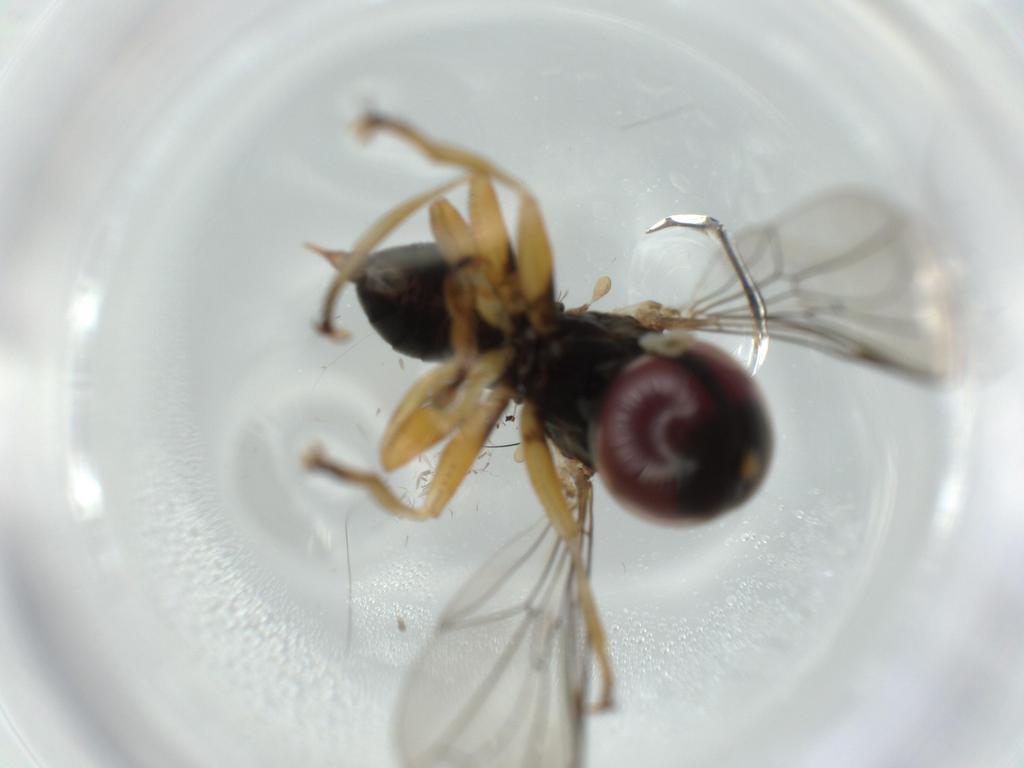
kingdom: Animalia
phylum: Arthropoda
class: Insecta
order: Diptera
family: Pipunculidae
